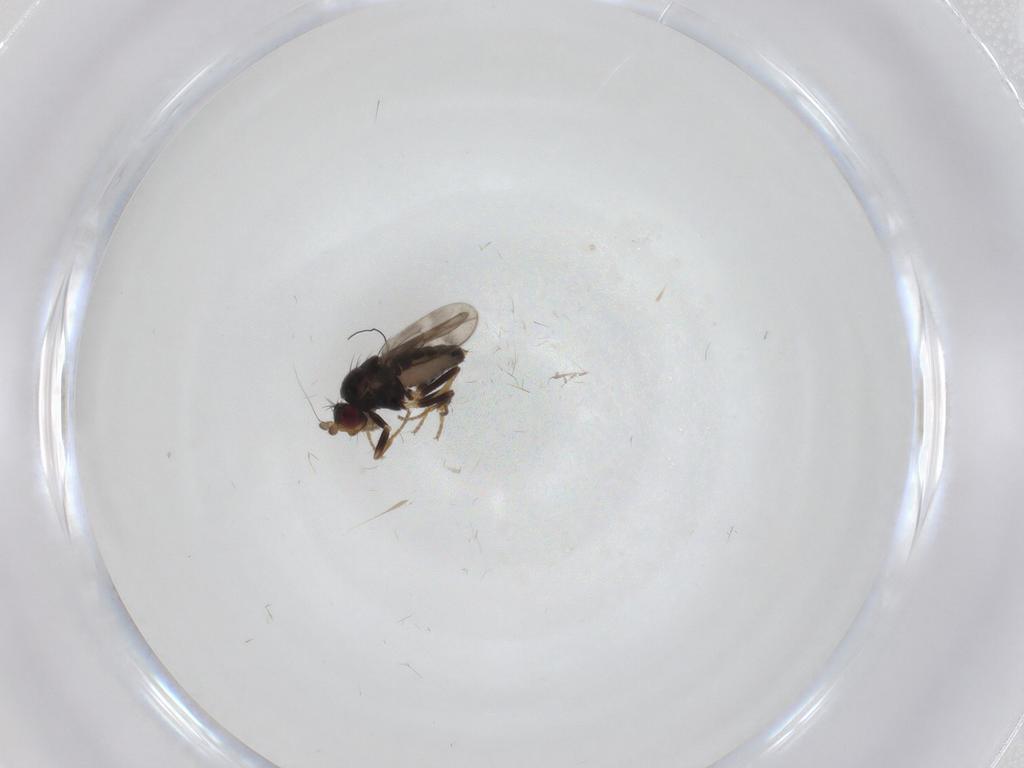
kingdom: Animalia
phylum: Arthropoda
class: Insecta
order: Diptera
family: Sphaeroceridae
